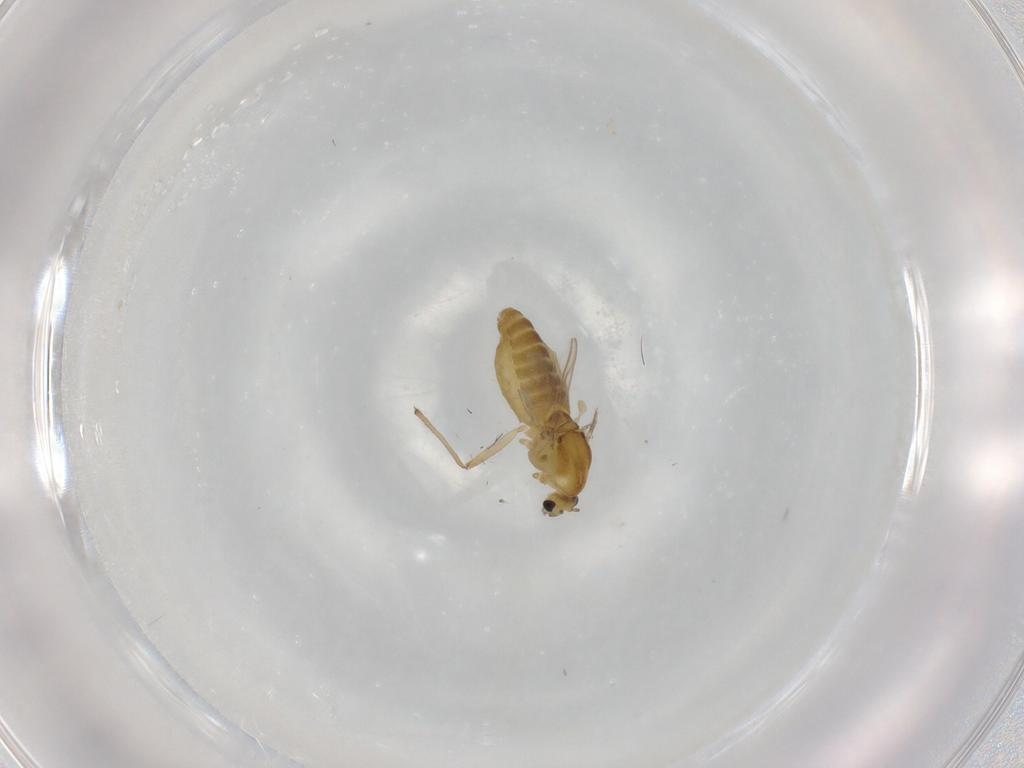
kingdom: Animalia
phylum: Arthropoda
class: Insecta
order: Diptera
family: Chironomidae
